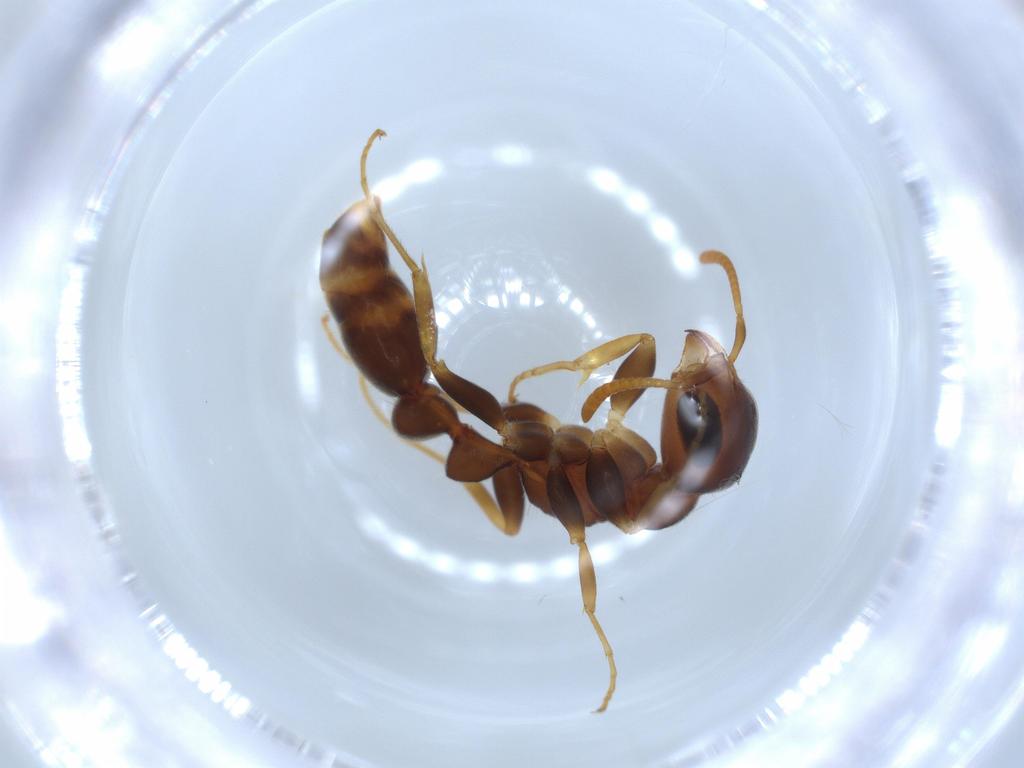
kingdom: Animalia
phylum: Arthropoda
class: Insecta
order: Hymenoptera
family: Formicidae
